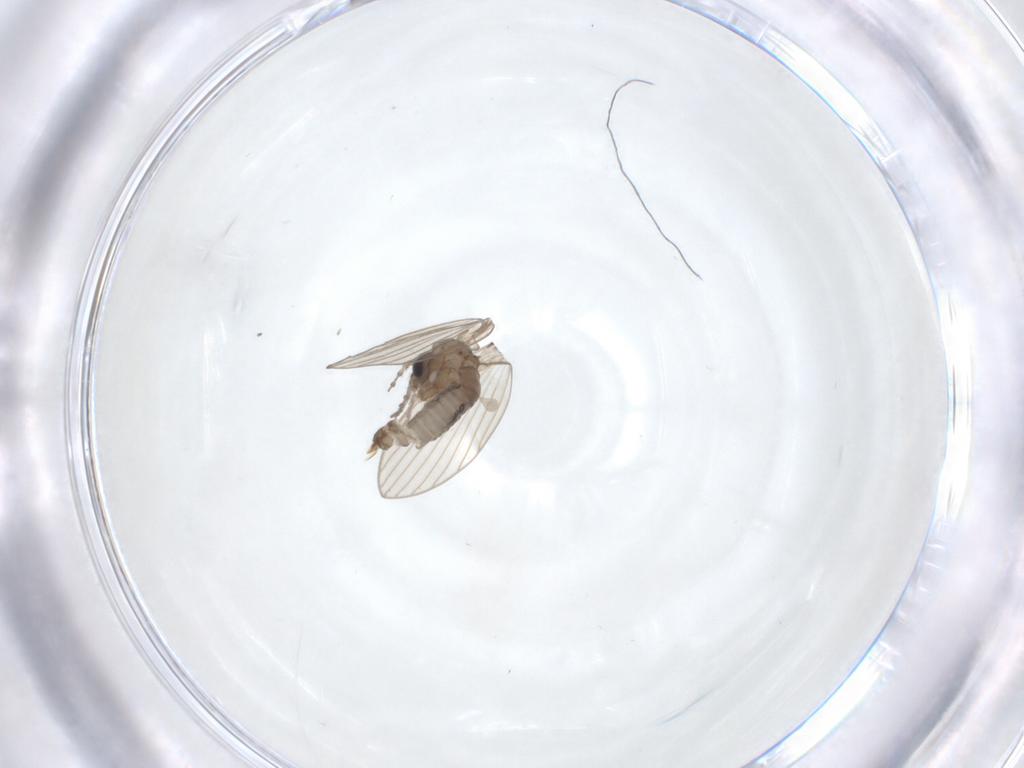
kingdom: Animalia
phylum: Arthropoda
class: Insecta
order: Diptera
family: Psychodidae
